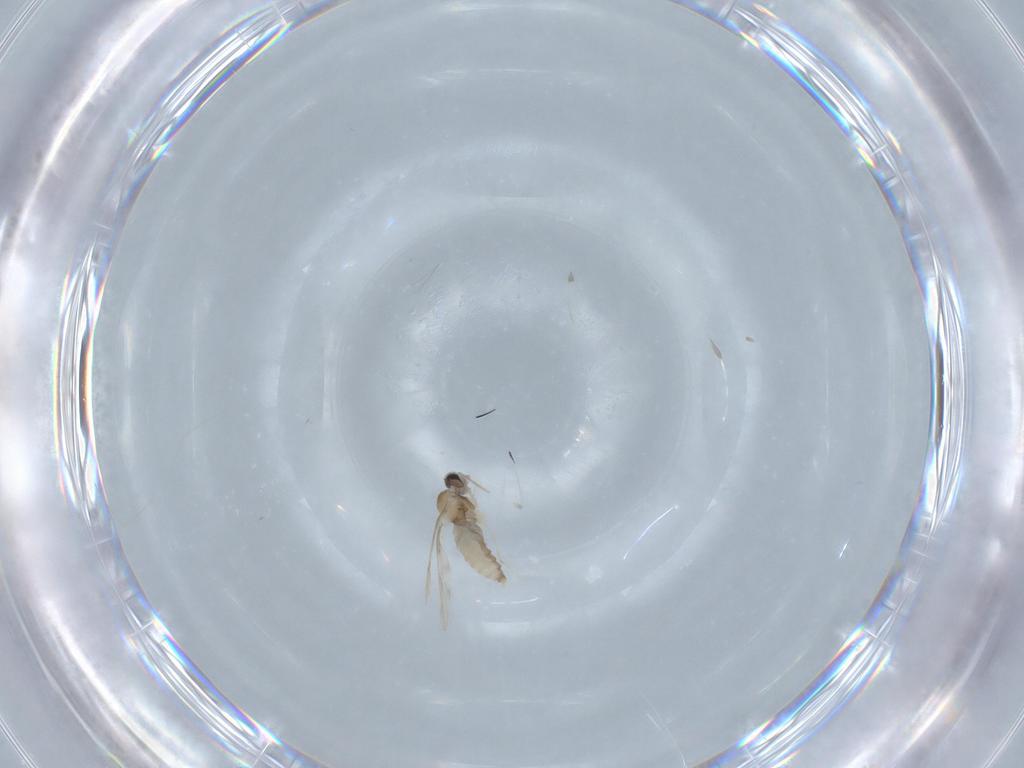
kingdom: Animalia
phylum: Arthropoda
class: Insecta
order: Diptera
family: Cecidomyiidae
